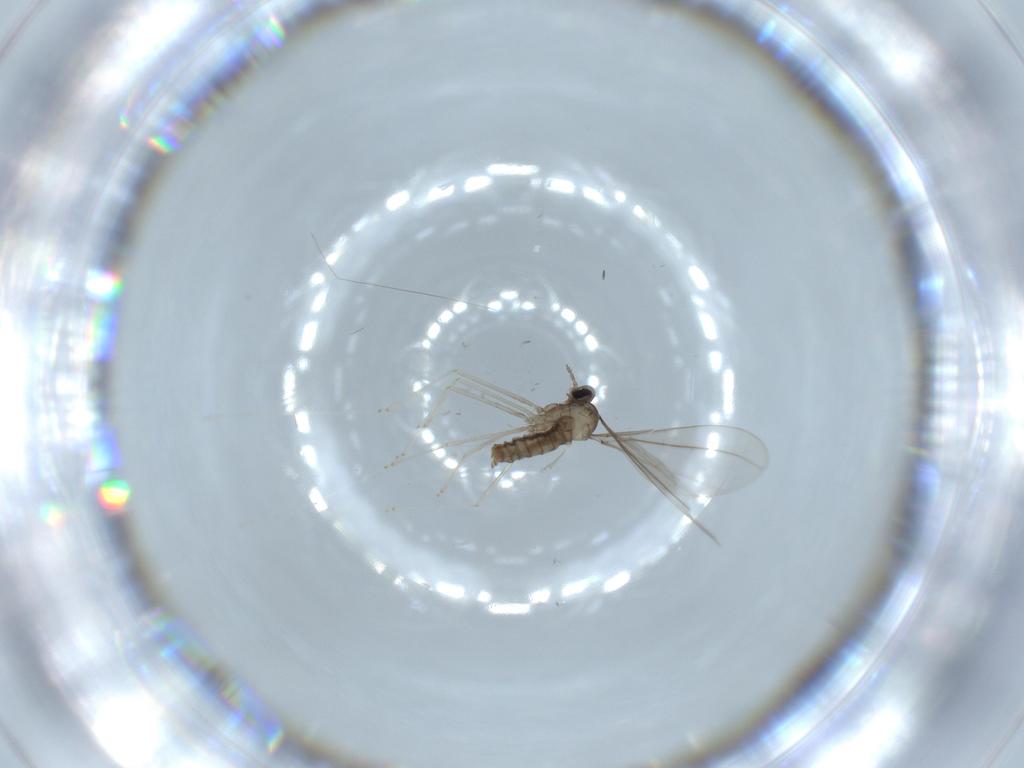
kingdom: Animalia
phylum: Arthropoda
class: Insecta
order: Diptera
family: Cecidomyiidae
